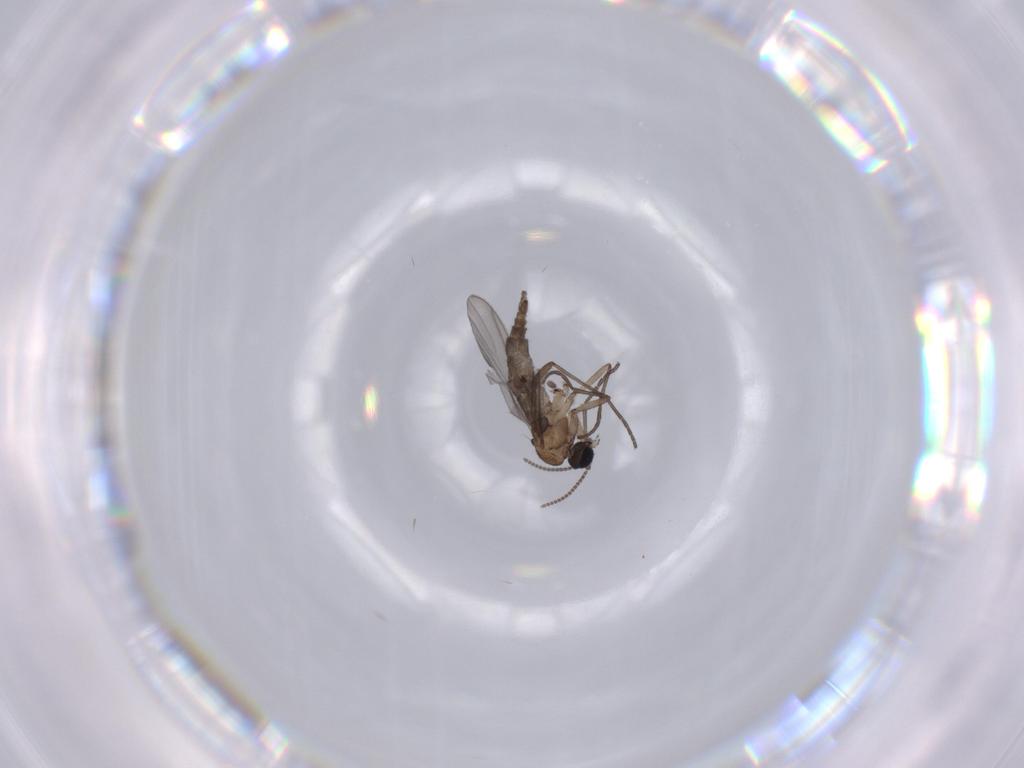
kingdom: Animalia
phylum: Arthropoda
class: Insecta
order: Diptera
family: Sciaridae
